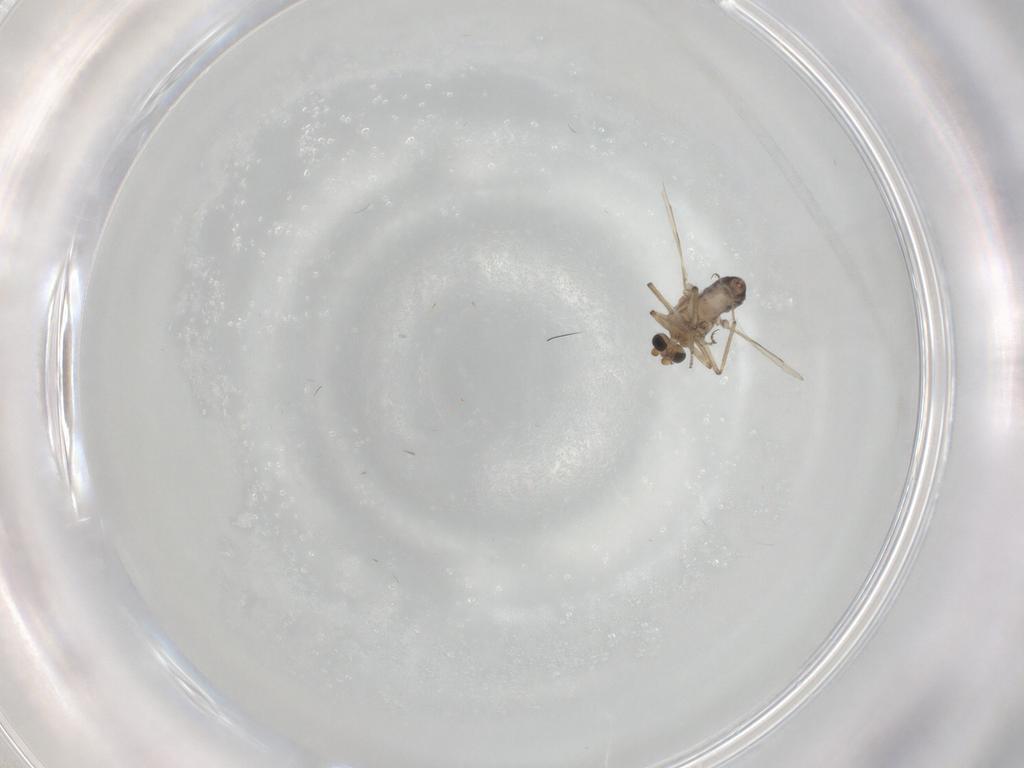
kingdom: Animalia
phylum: Arthropoda
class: Insecta
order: Diptera
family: Ceratopogonidae
